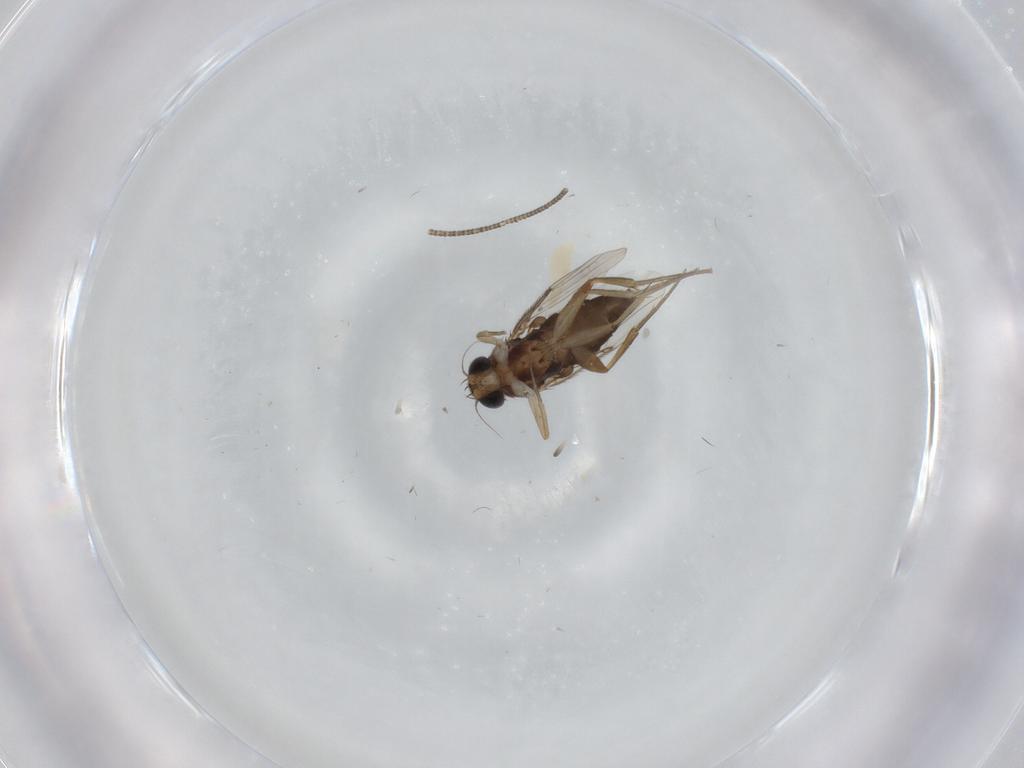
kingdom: Animalia
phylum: Arthropoda
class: Insecta
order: Diptera
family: Phoridae
